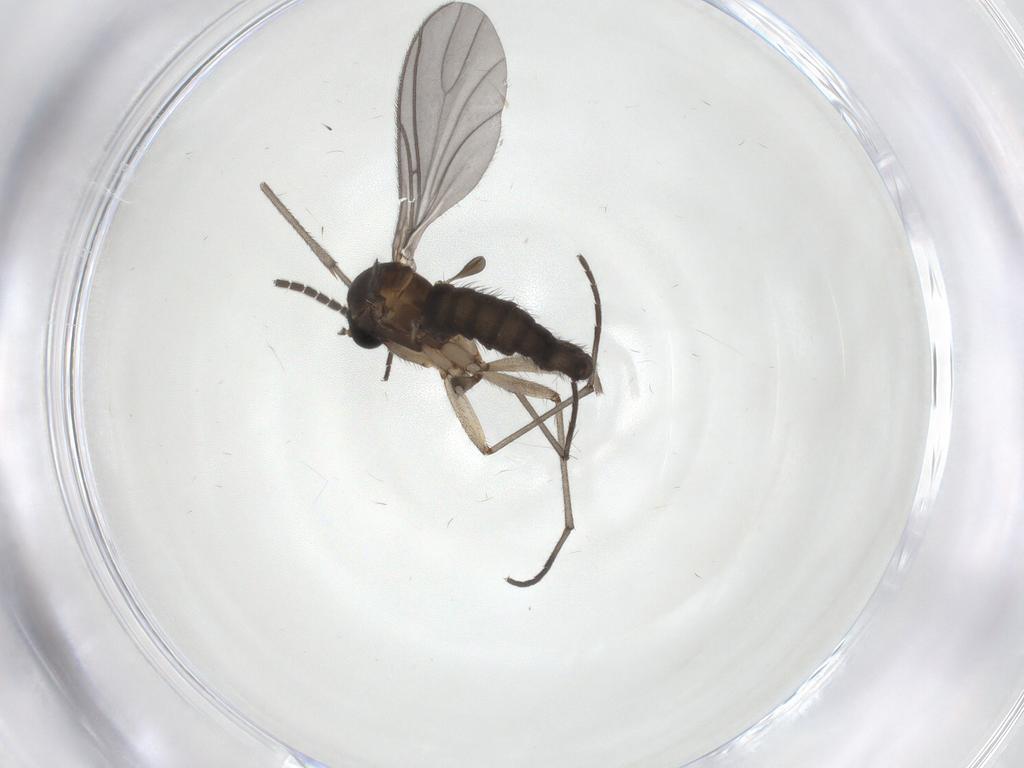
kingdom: Animalia
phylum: Arthropoda
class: Insecta
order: Diptera
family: Sciaridae
